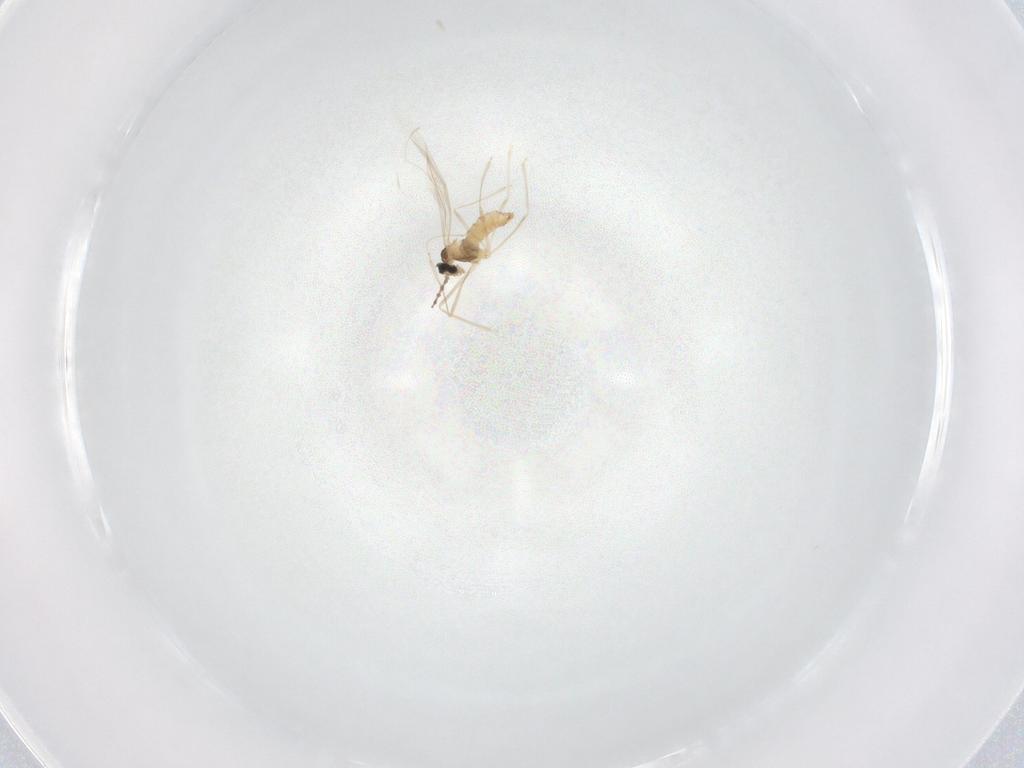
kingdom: Animalia
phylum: Arthropoda
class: Insecta
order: Diptera
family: Cecidomyiidae
